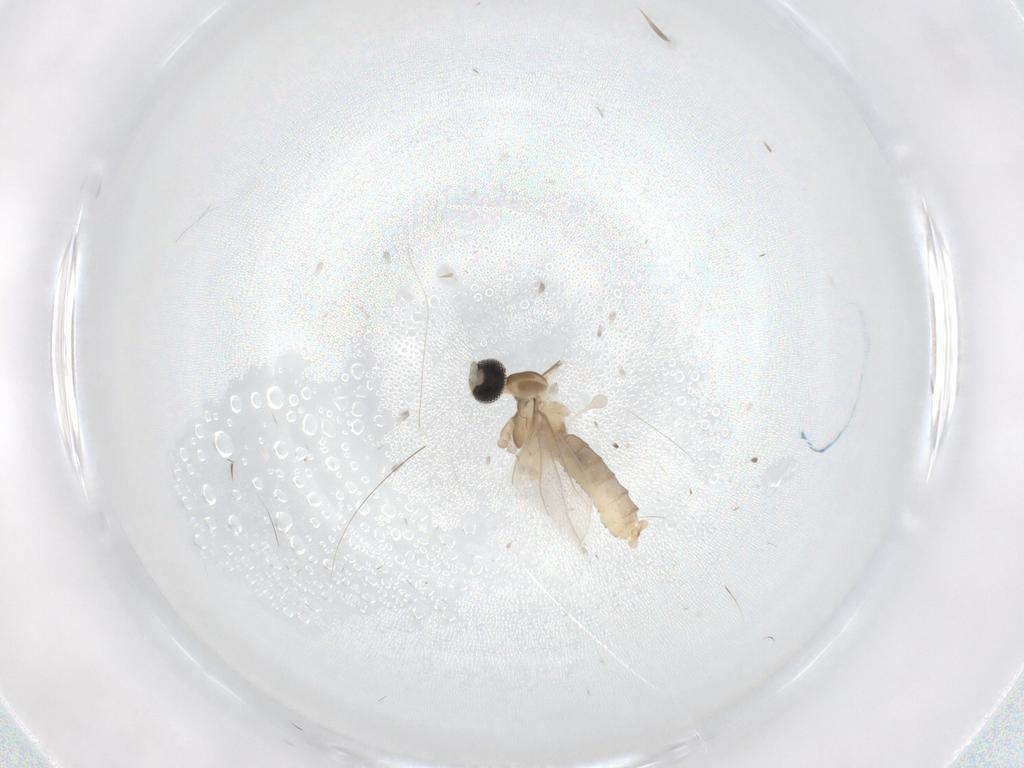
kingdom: Animalia
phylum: Arthropoda
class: Insecta
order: Diptera
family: Cecidomyiidae
